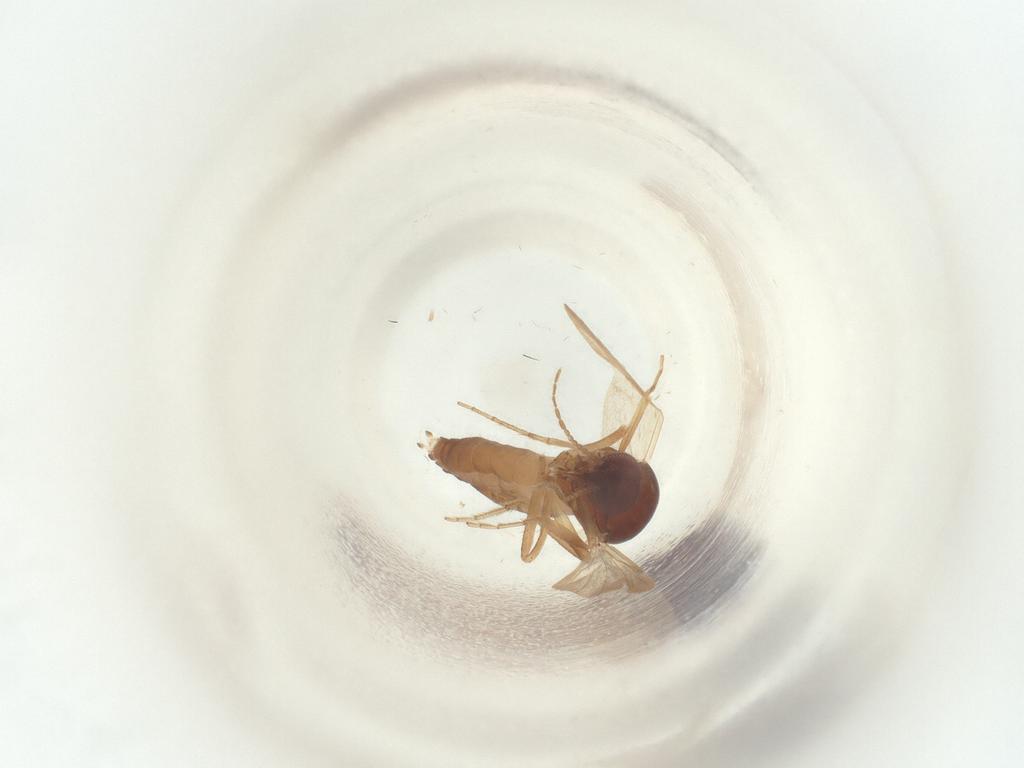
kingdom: Animalia
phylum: Arthropoda
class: Insecta
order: Diptera
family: Ceratopogonidae
